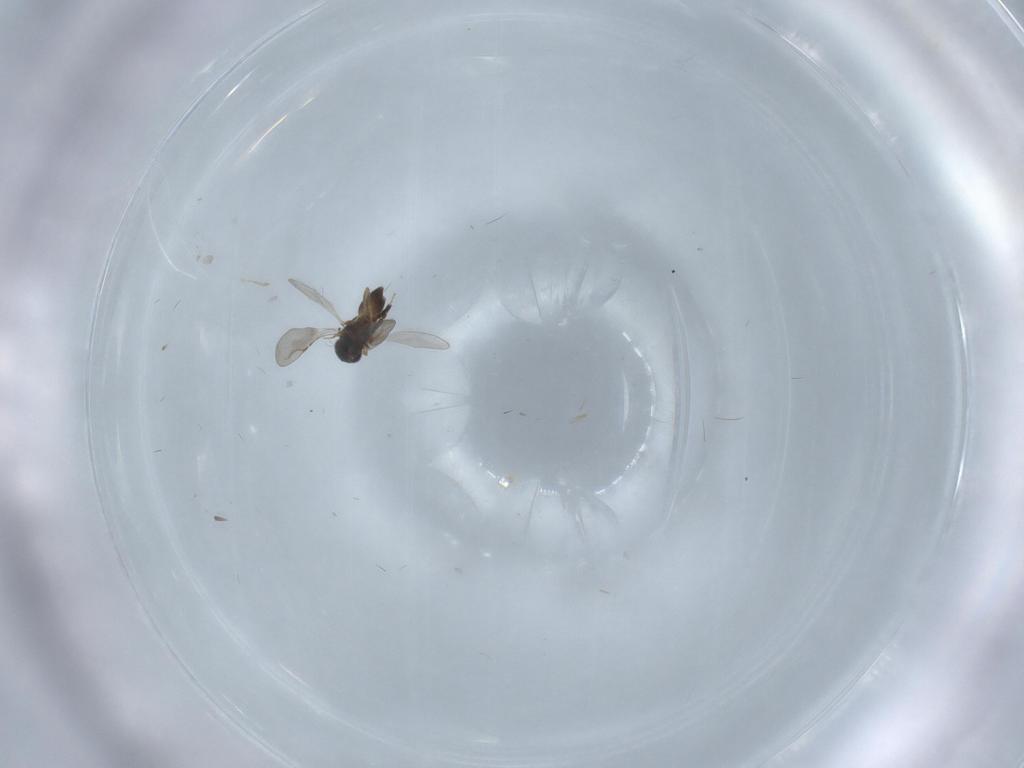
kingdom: Animalia
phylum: Arthropoda
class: Insecta
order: Hymenoptera
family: Ceraphronidae
